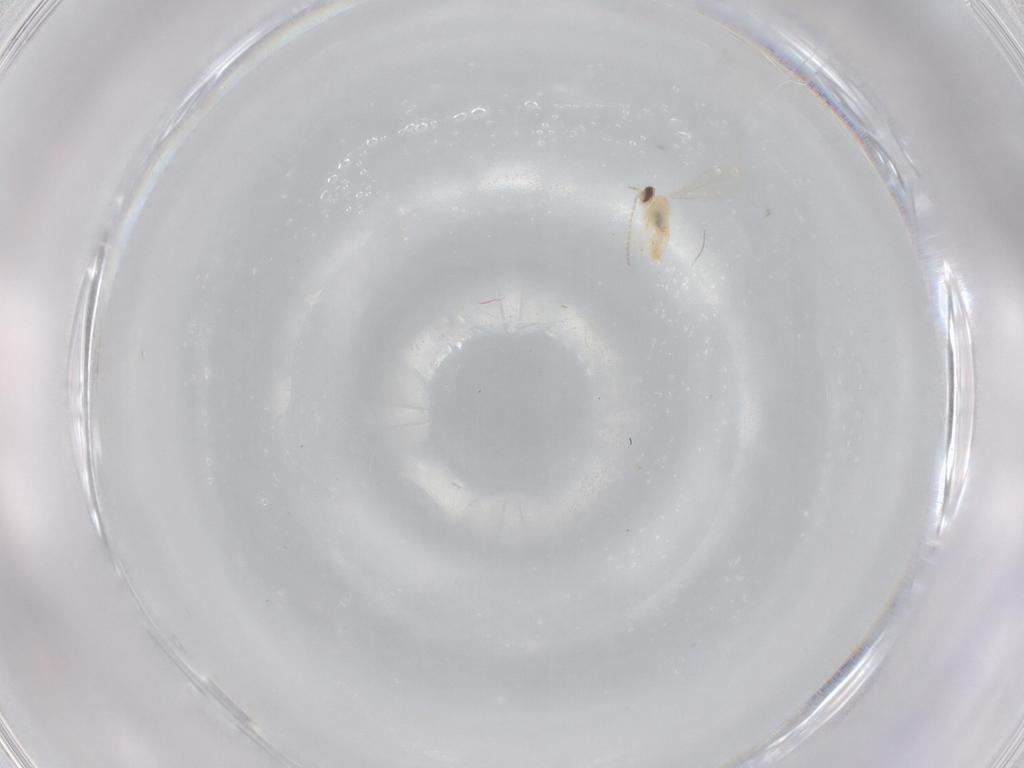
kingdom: Animalia
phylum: Arthropoda
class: Insecta
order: Diptera
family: Cecidomyiidae
